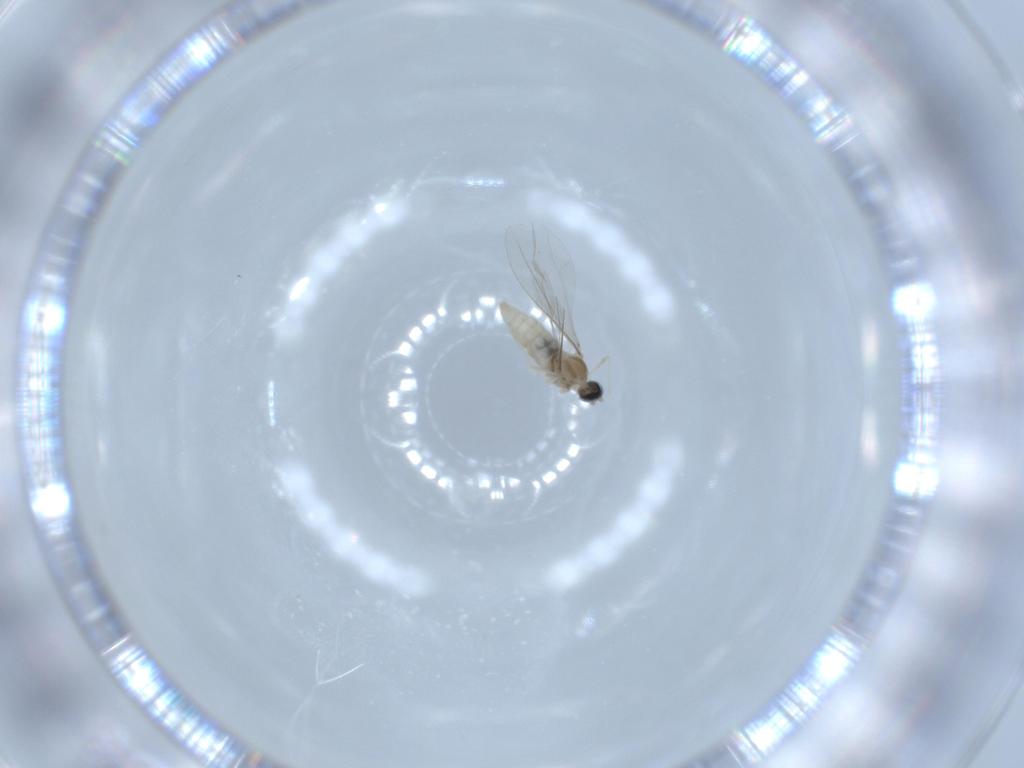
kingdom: Animalia
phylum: Arthropoda
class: Insecta
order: Diptera
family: Cecidomyiidae
